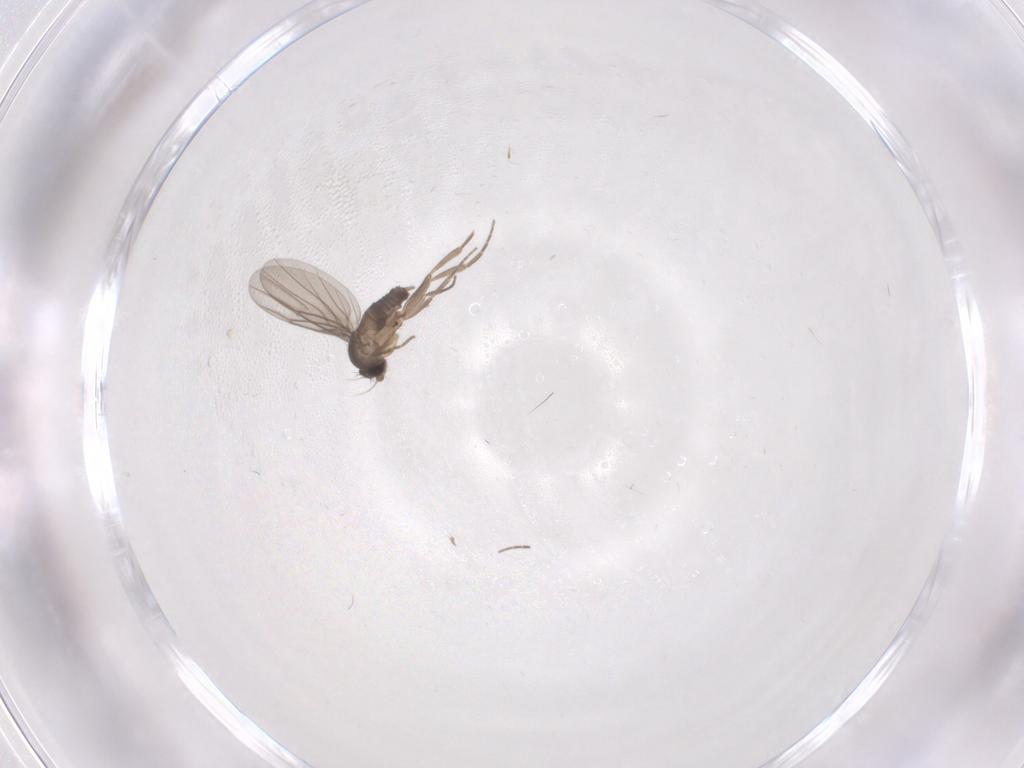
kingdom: Animalia
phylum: Arthropoda
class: Insecta
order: Diptera
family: Phoridae
